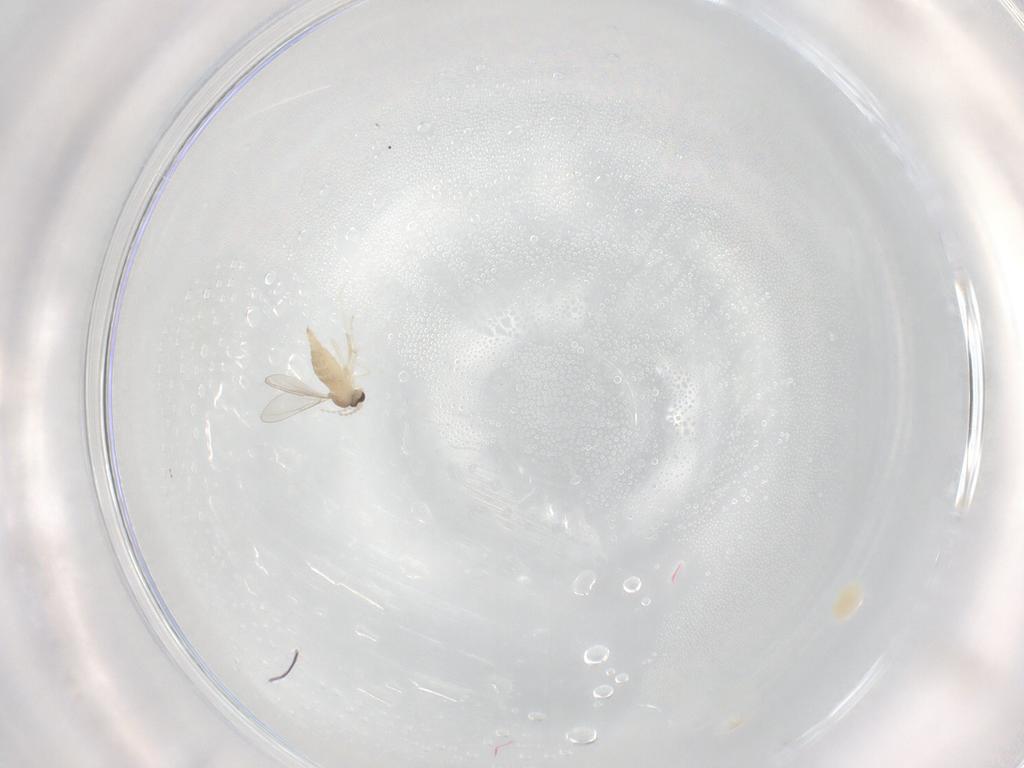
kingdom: Animalia
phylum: Arthropoda
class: Insecta
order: Diptera
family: Cecidomyiidae
